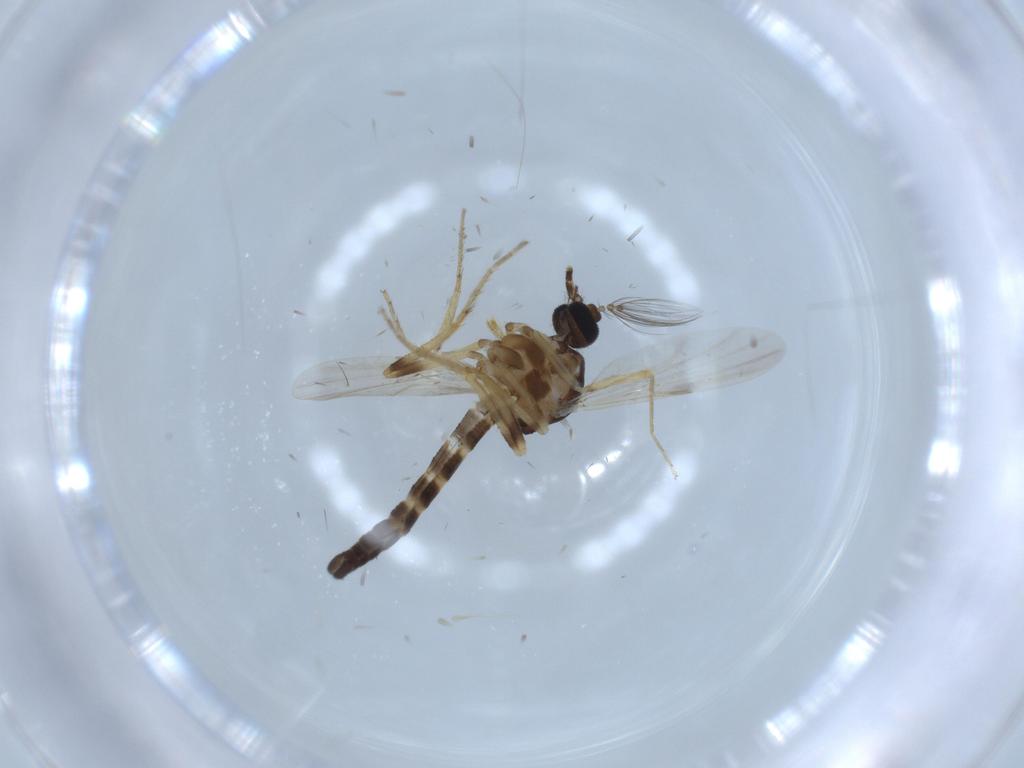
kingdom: Animalia
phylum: Arthropoda
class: Insecta
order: Diptera
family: Ceratopogonidae
